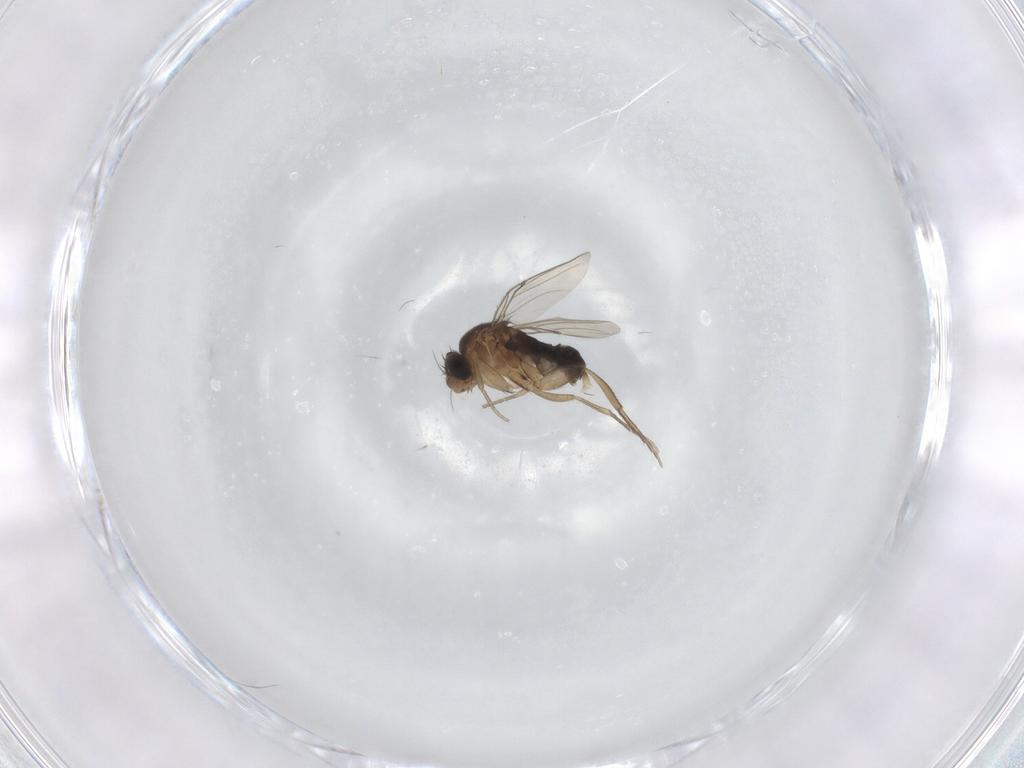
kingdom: Animalia
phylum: Arthropoda
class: Insecta
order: Diptera
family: Phoridae
